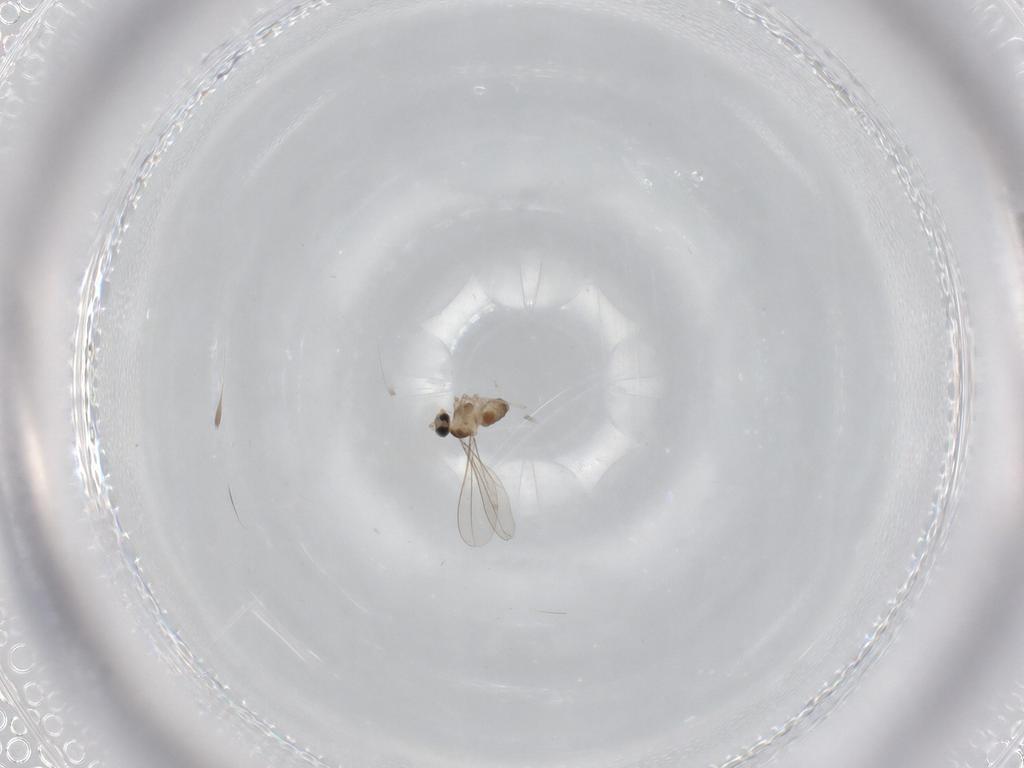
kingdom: Animalia
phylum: Arthropoda
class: Insecta
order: Diptera
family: Cecidomyiidae
